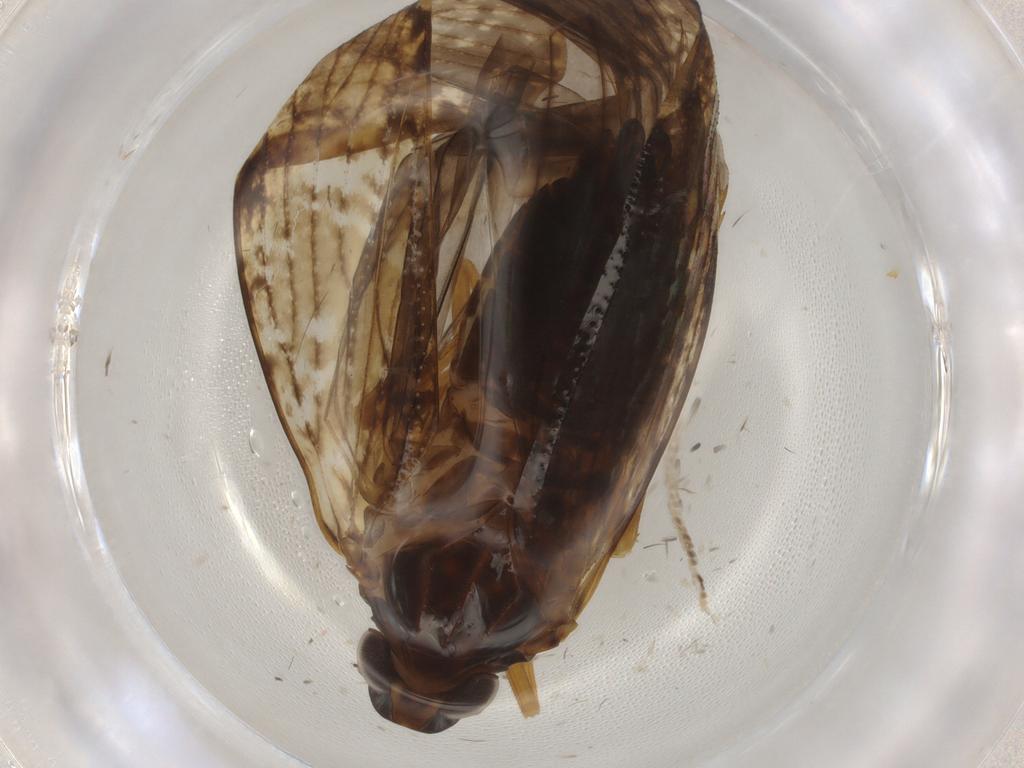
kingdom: Animalia
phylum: Arthropoda
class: Insecta
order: Hemiptera
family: Cixiidae
